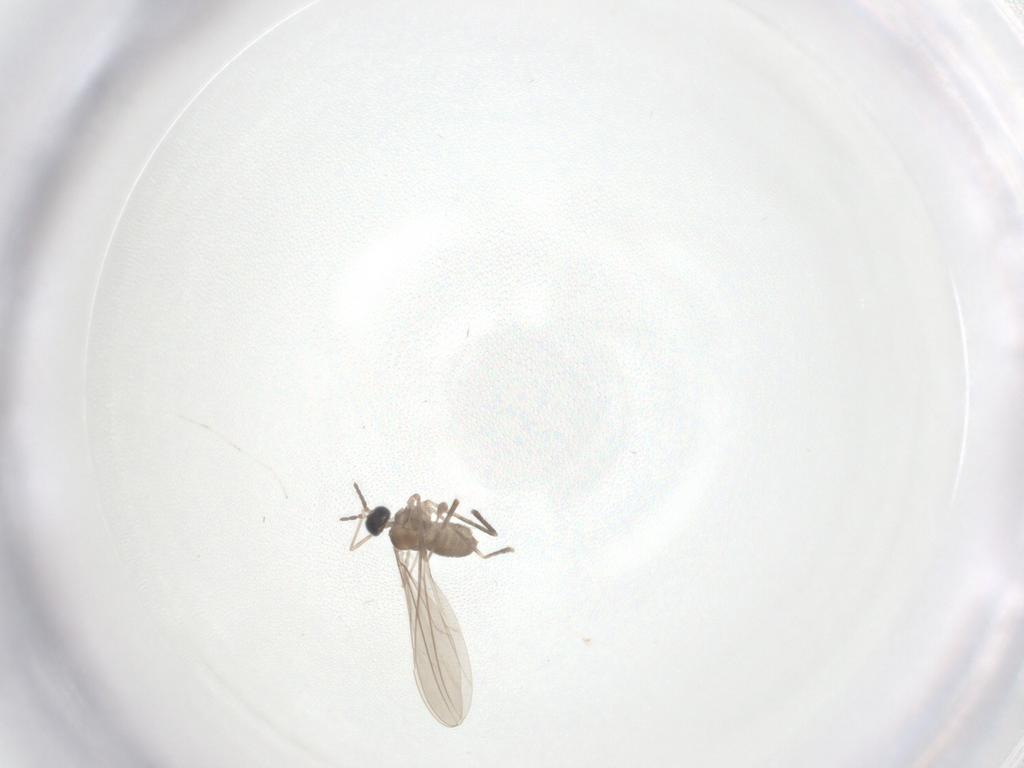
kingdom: Animalia
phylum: Arthropoda
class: Insecta
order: Diptera
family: Cecidomyiidae
